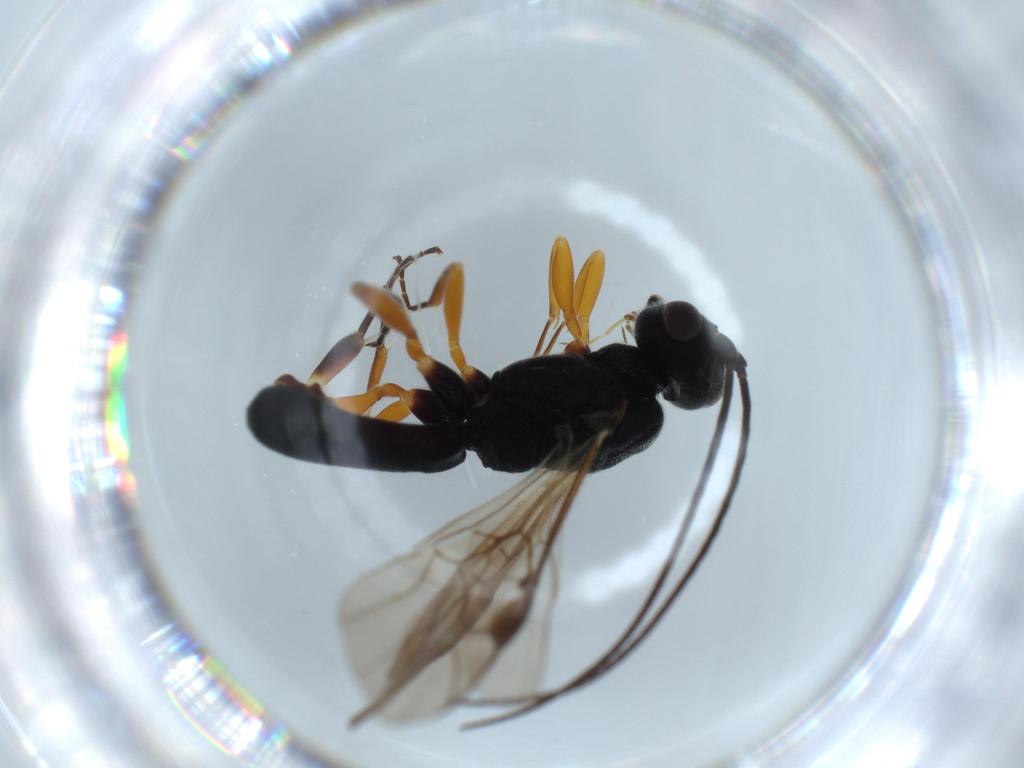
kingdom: Animalia
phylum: Arthropoda
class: Insecta
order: Hymenoptera
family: Braconidae
